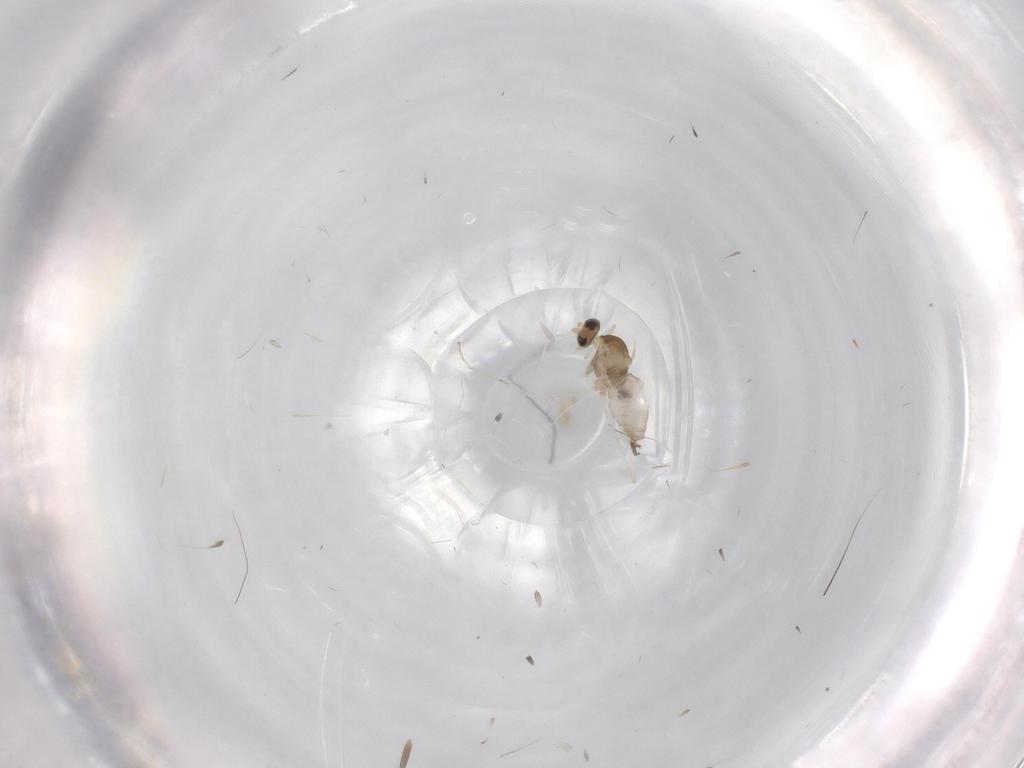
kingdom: Animalia
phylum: Arthropoda
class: Insecta
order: Diptera
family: Cecidomyiidae
